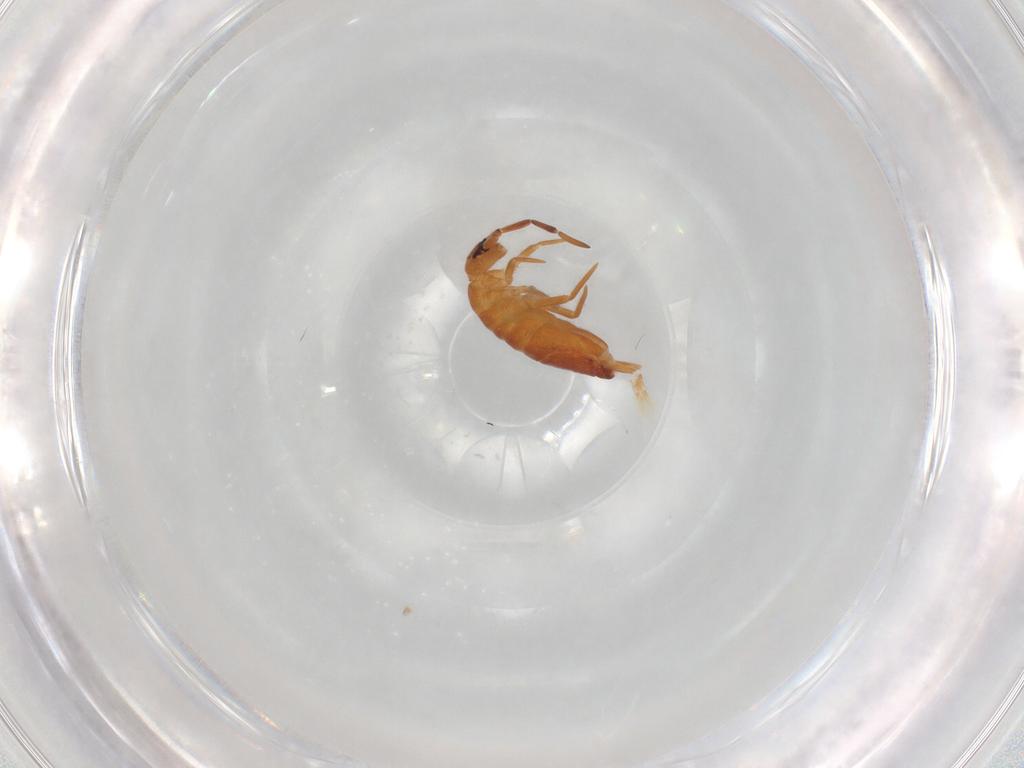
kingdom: Animalia
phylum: Arthropoda
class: Collembola
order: Entomobryomorpha
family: Entomobryidae
